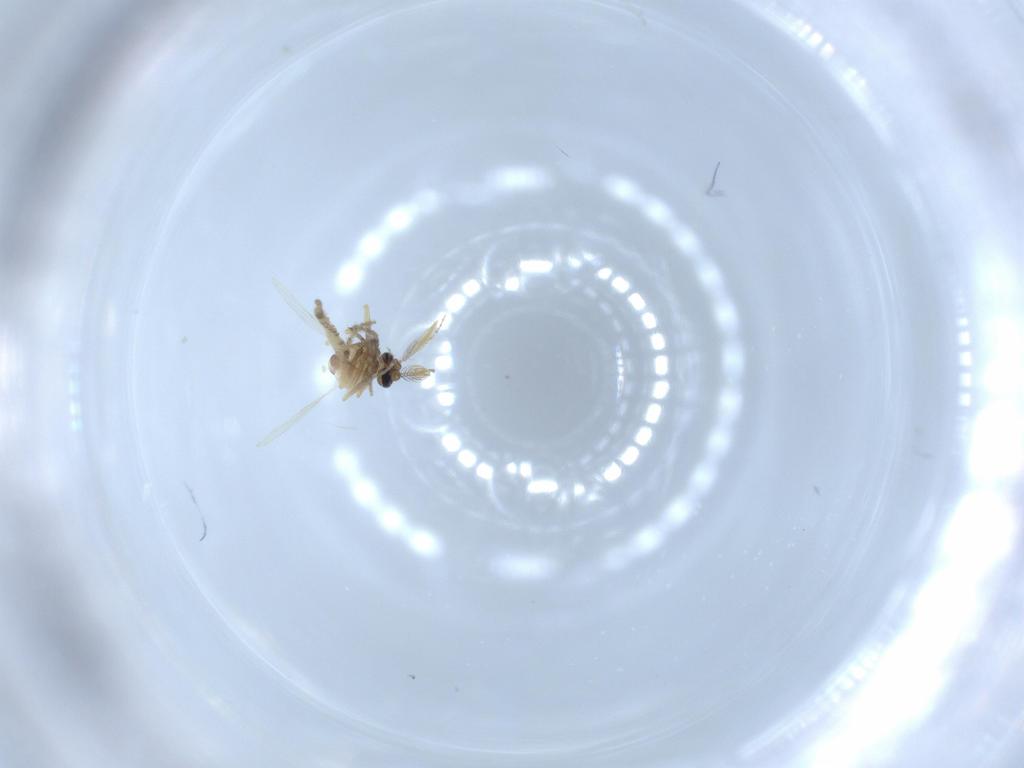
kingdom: Animalia
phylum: Arthropoda
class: Insecta
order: Diptera
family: Ceratopogonidae
